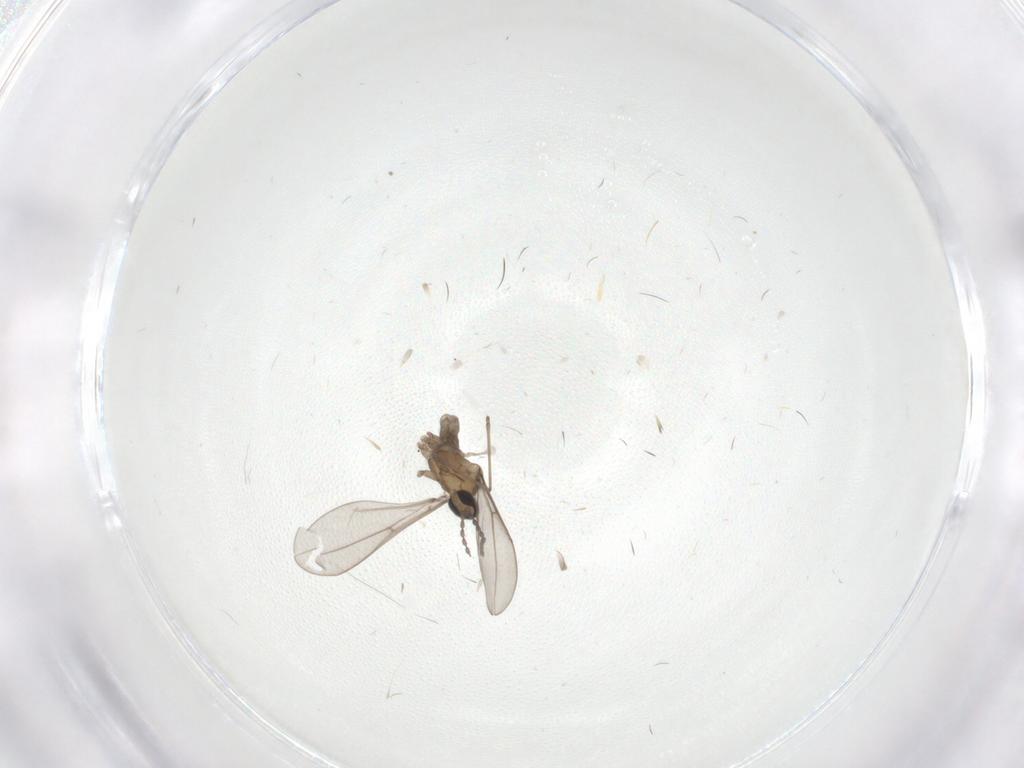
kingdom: Animalia
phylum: Arthropoda
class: Insecta
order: Diptera
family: Cecidomyiidae
